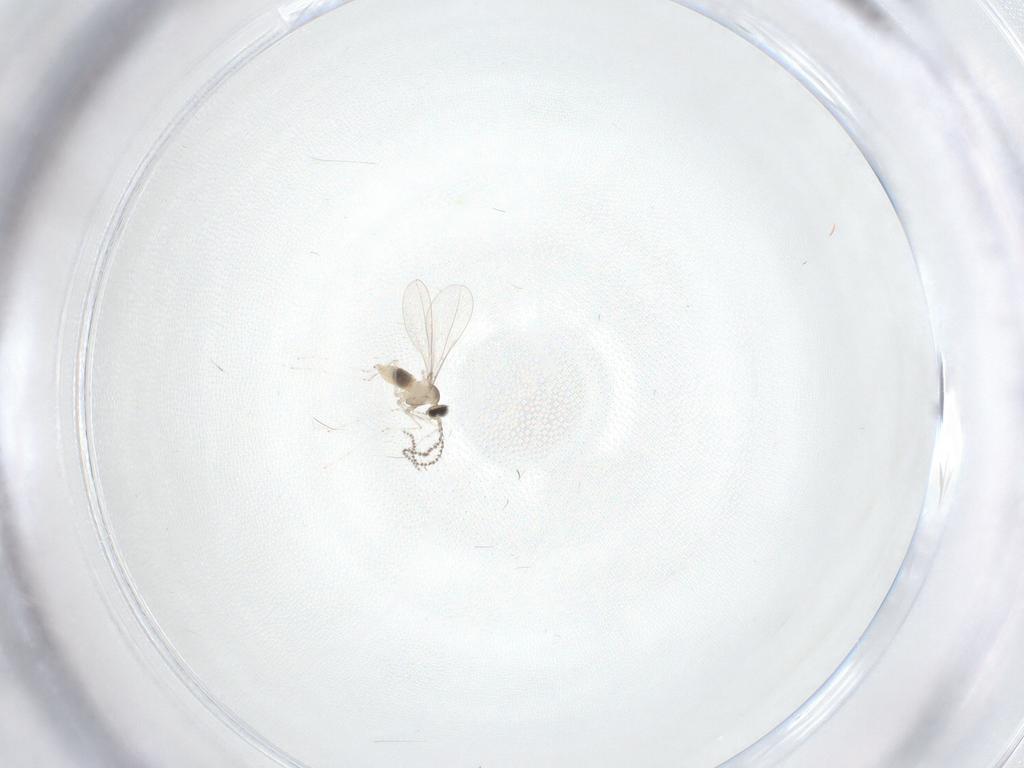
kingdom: Animalia
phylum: Arthropoda
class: Insecta
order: Diptera
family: Cecidomyiidae
